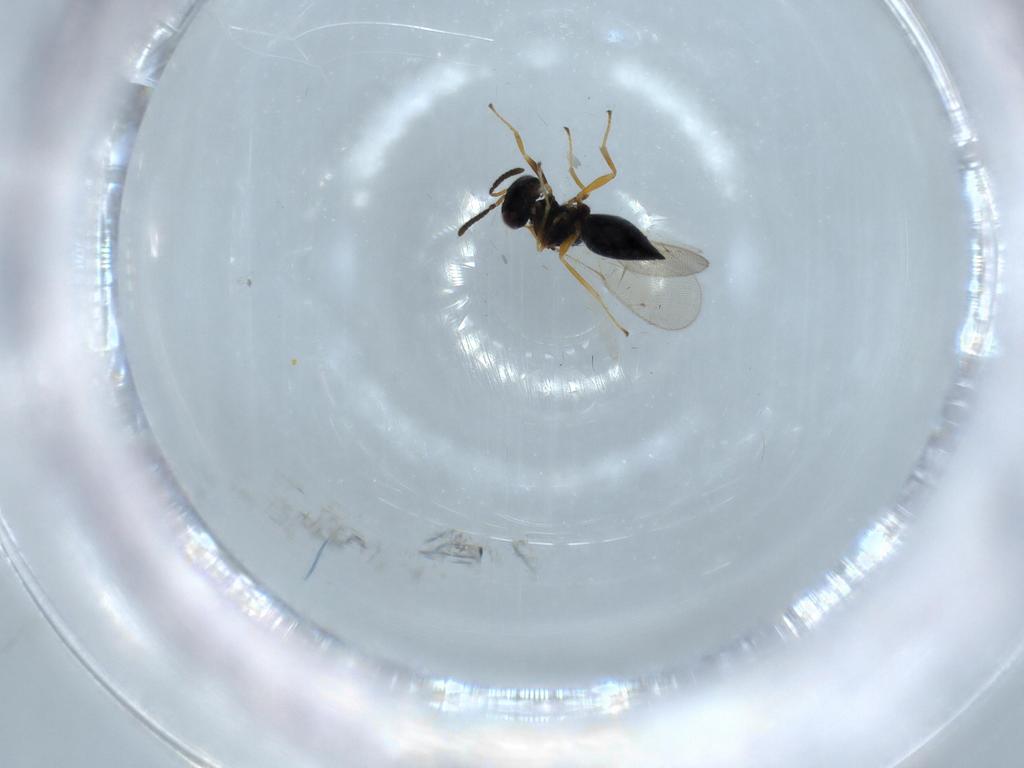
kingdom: Animalia
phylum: Arthropoda
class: Insecta
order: Hymenoptera
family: Pteromalidae
